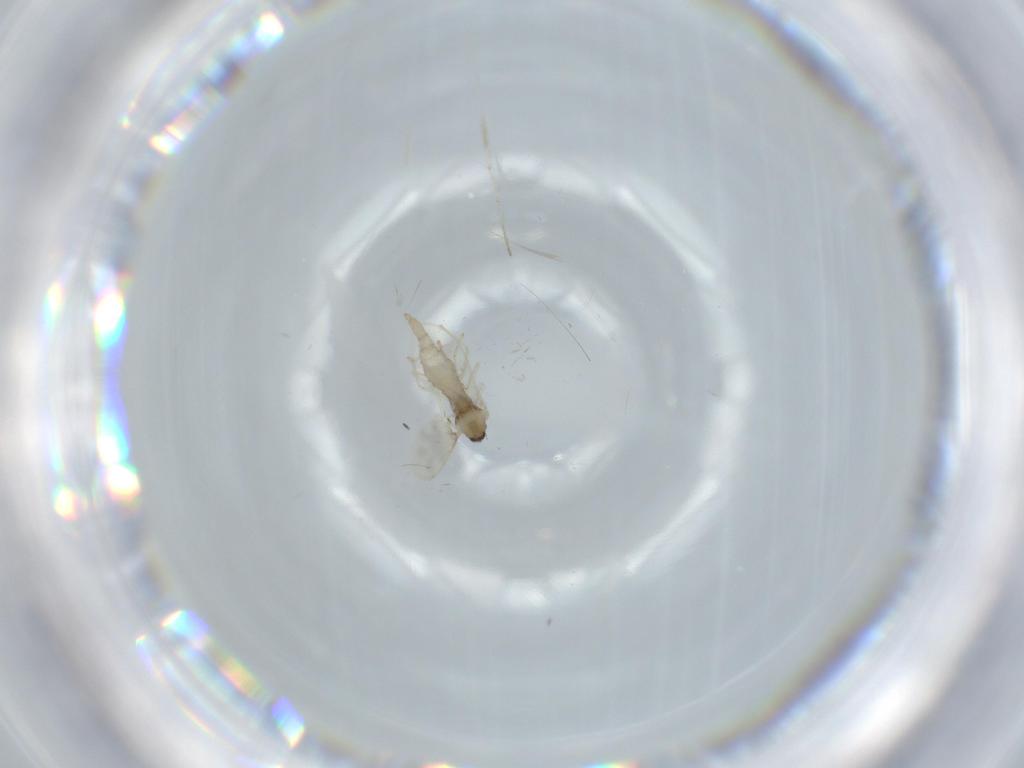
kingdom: Animalia
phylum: Arthropoda
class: Insecta
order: Diptera
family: Cecidomyiidae
